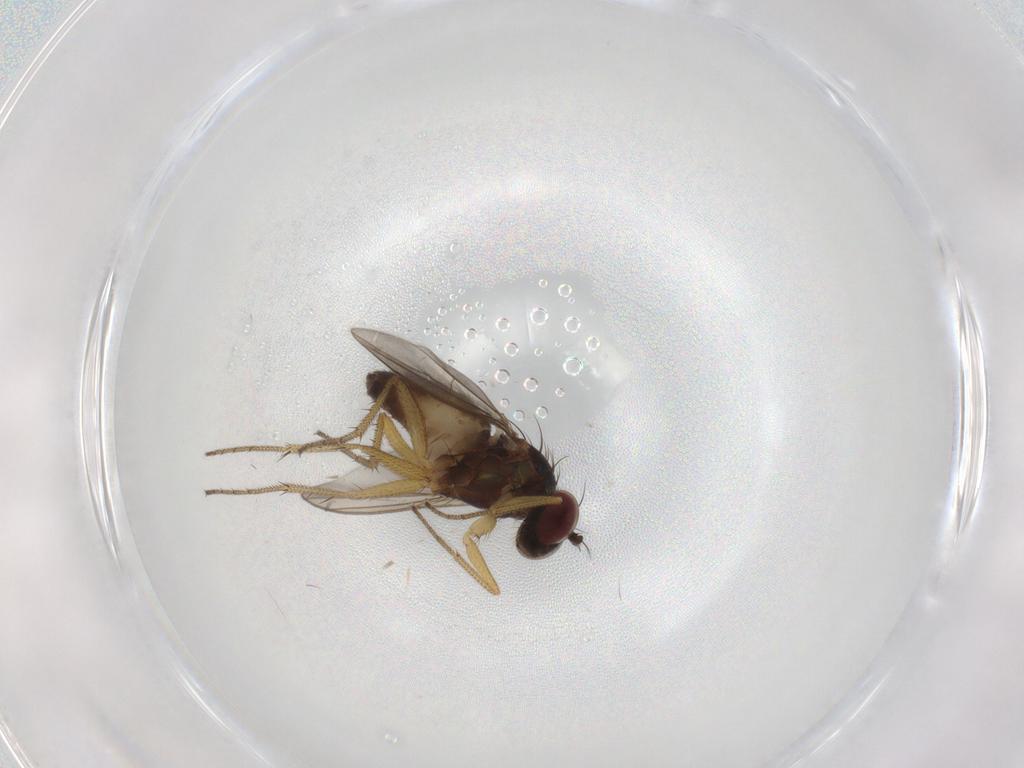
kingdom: Animalia
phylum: Arthropoda
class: Insecta
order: Diptera
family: Dolichopodidae
